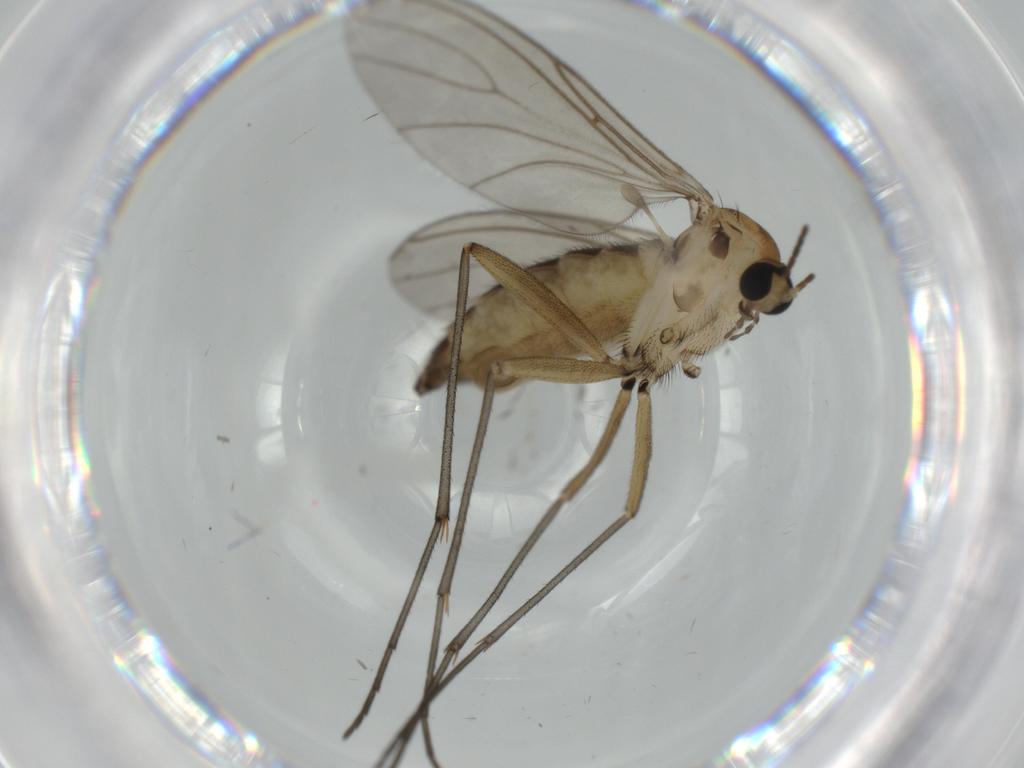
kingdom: Animalia
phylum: Arthropoda
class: Insecta
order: Diptera
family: Sciaridae
